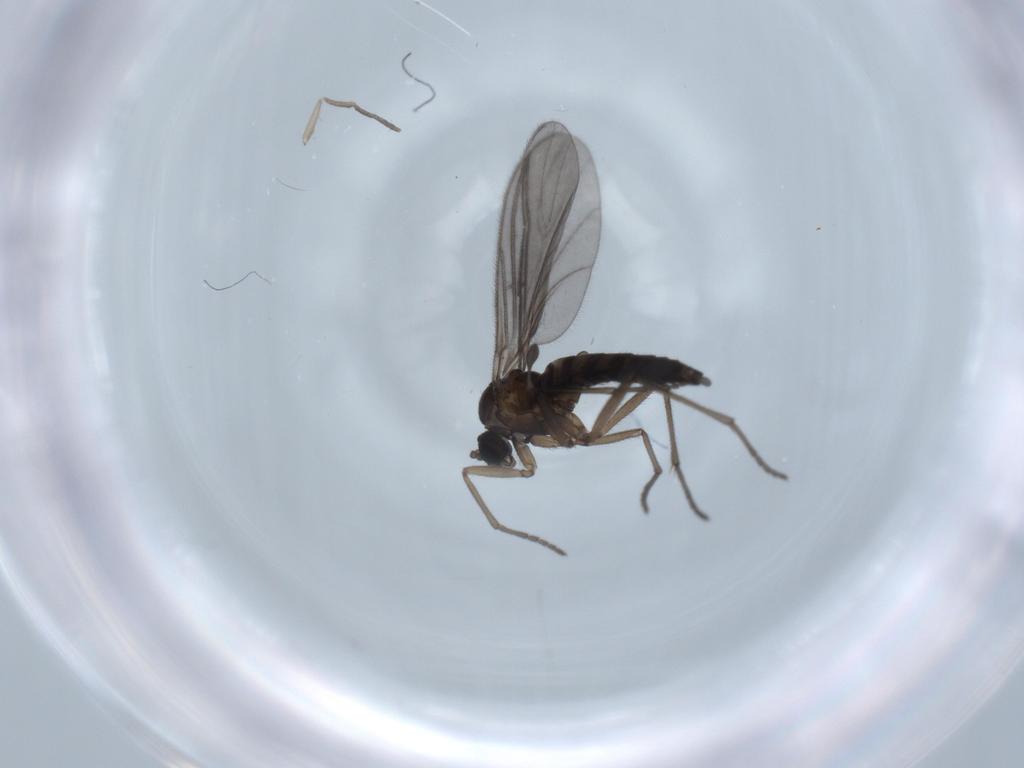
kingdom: Animalia
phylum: Arthropoda
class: Insecta
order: Diptera
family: Sciaridae
